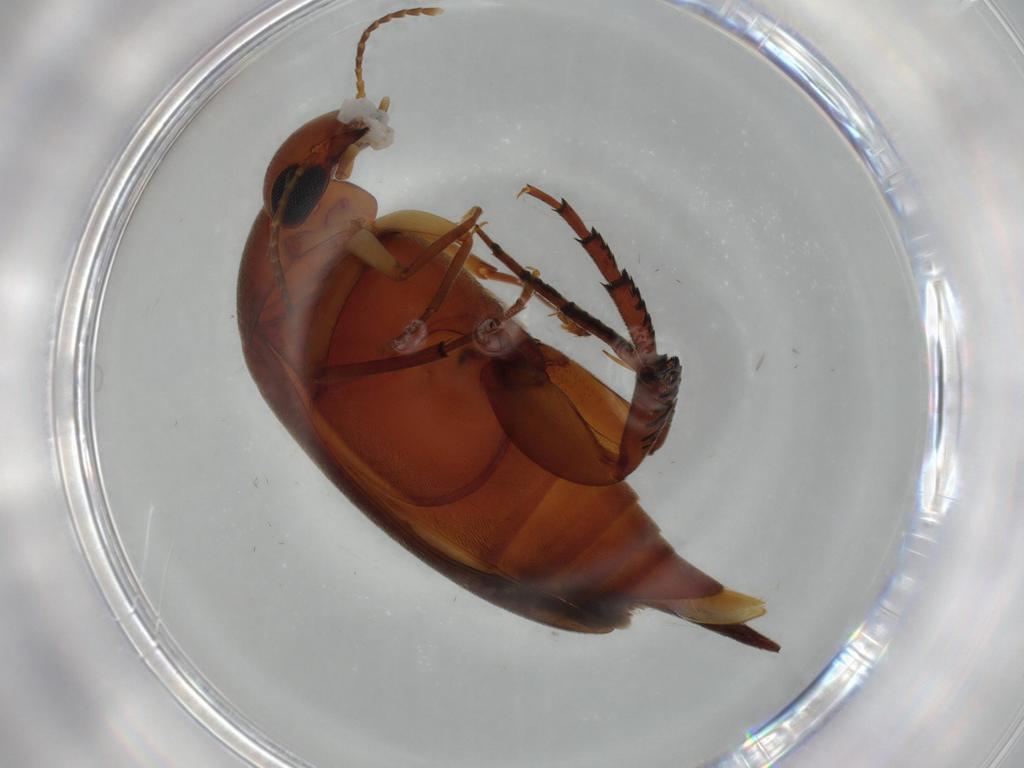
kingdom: Animalia
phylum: Arthropoda
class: Insecta
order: Coleoptera
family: Mordellidae
